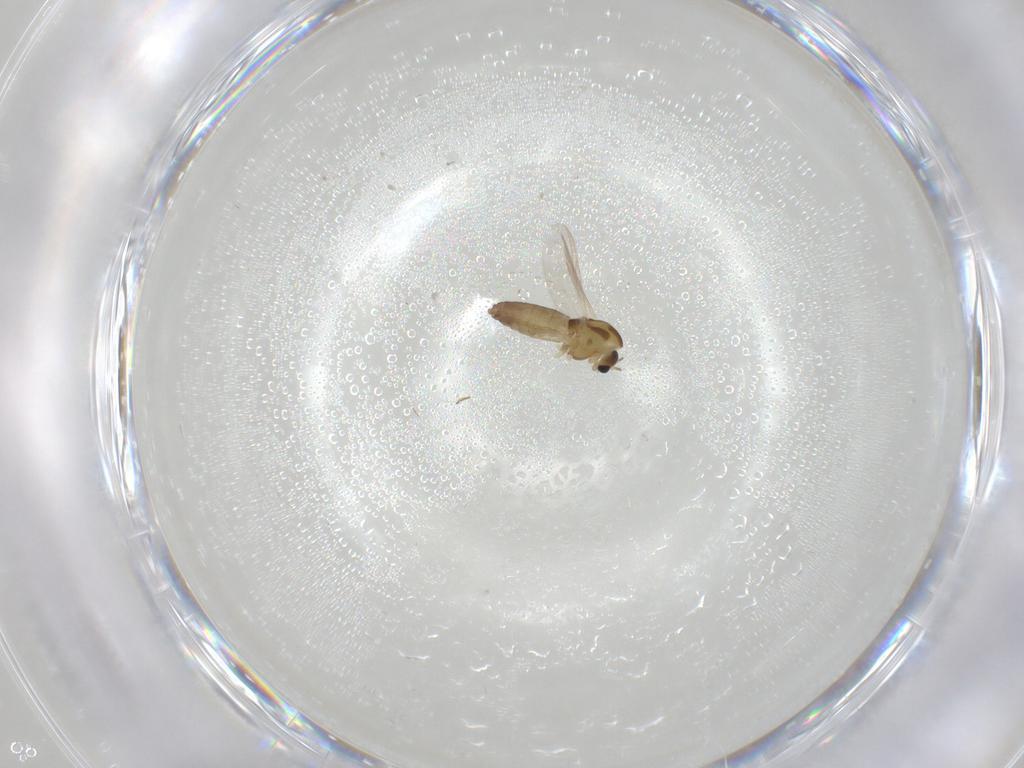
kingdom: Animalia
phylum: Arthropoda
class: Insecta
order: Diptera
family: Chironomidae
